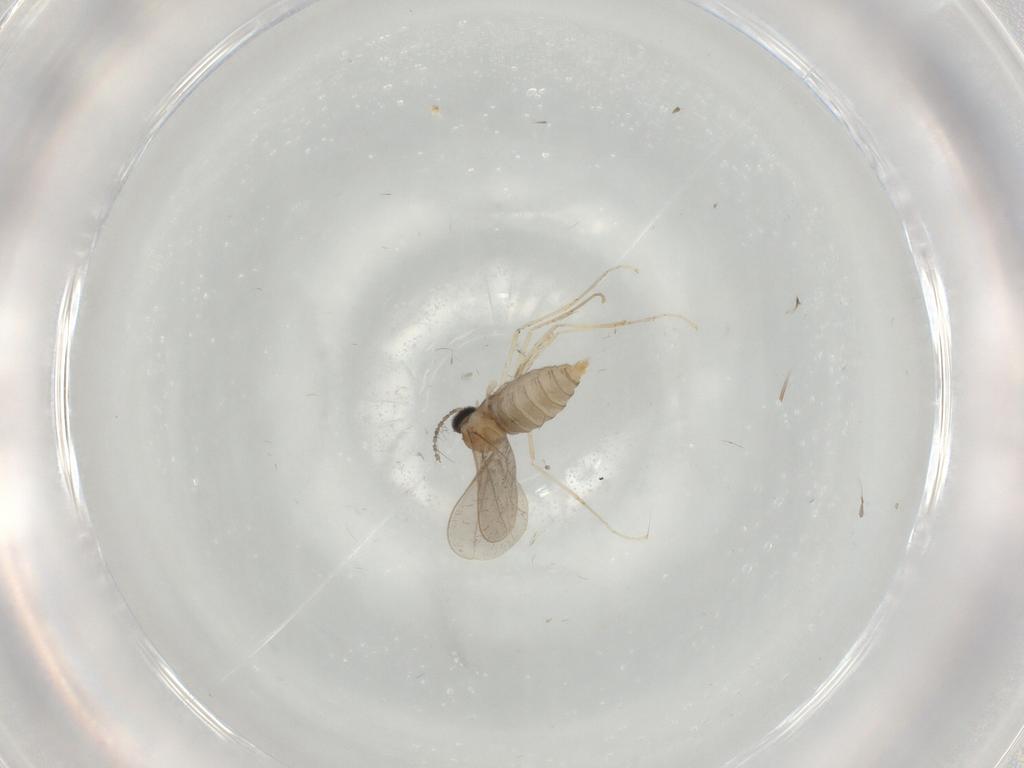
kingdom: Animalia
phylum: Arthropoda
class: Insecta
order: Diptera
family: Cecidomyiidae
